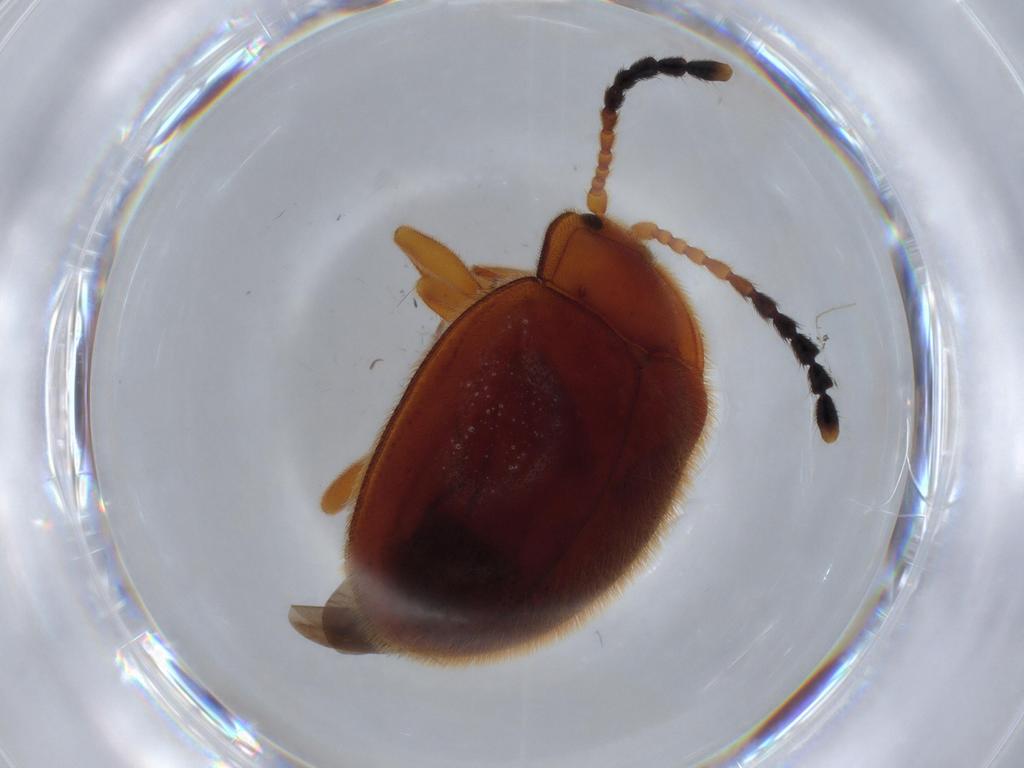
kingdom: Animalia
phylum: Arthropoda
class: Insecta
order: Coleoptera
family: Endomychidae
